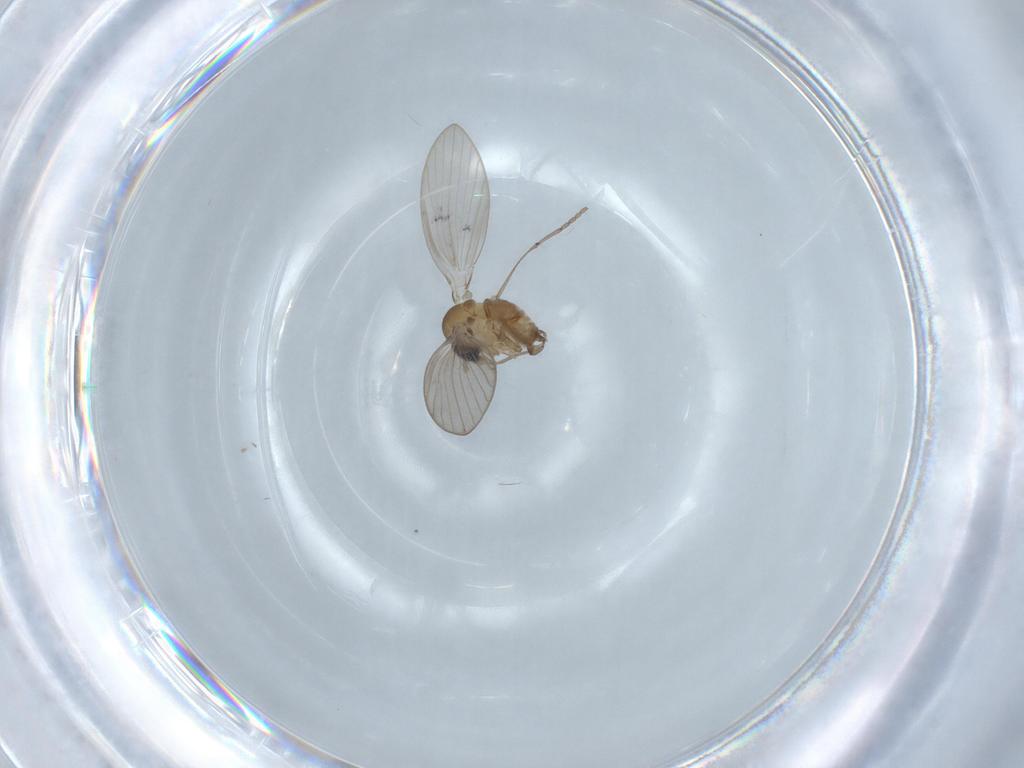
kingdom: Animalia
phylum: Arthropoda
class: Insecta
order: Diptera
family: Psychodidae
